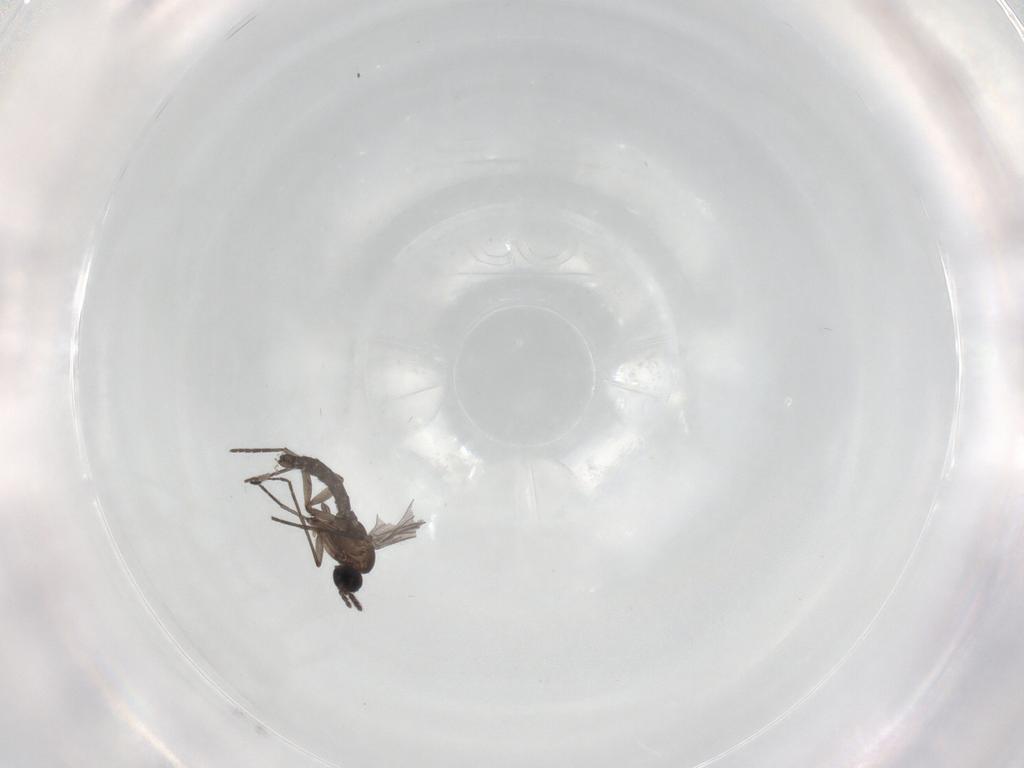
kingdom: Animalia
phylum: Arthropoda
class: Insecta
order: Diptera
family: Chironomidae
